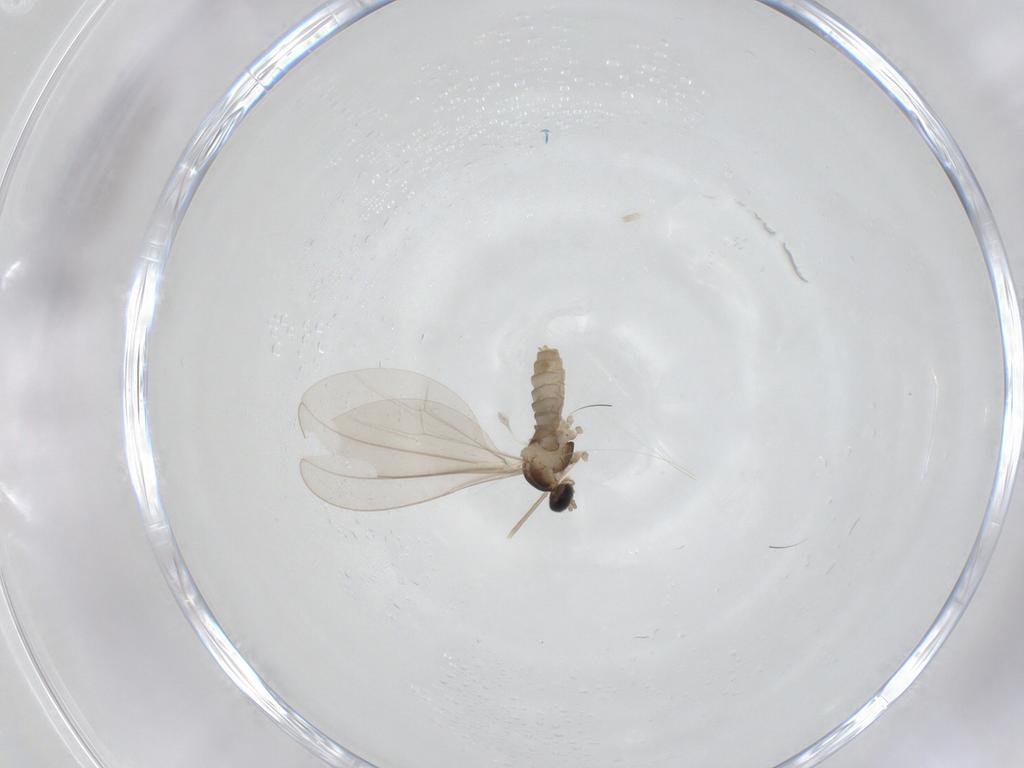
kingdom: Animalia
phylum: Arthropoda
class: Insecta
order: Diptera
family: Cecidomyiidae
